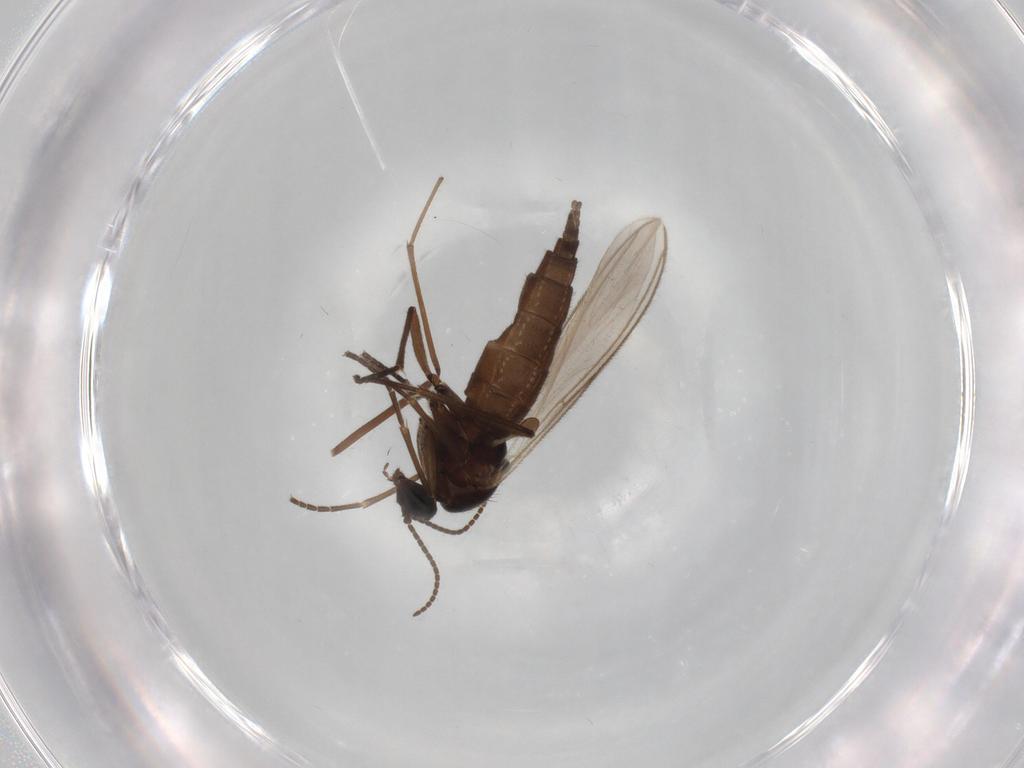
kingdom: Animalia
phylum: Arthropoda
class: Insecta
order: Diptera
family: Sciaridae
